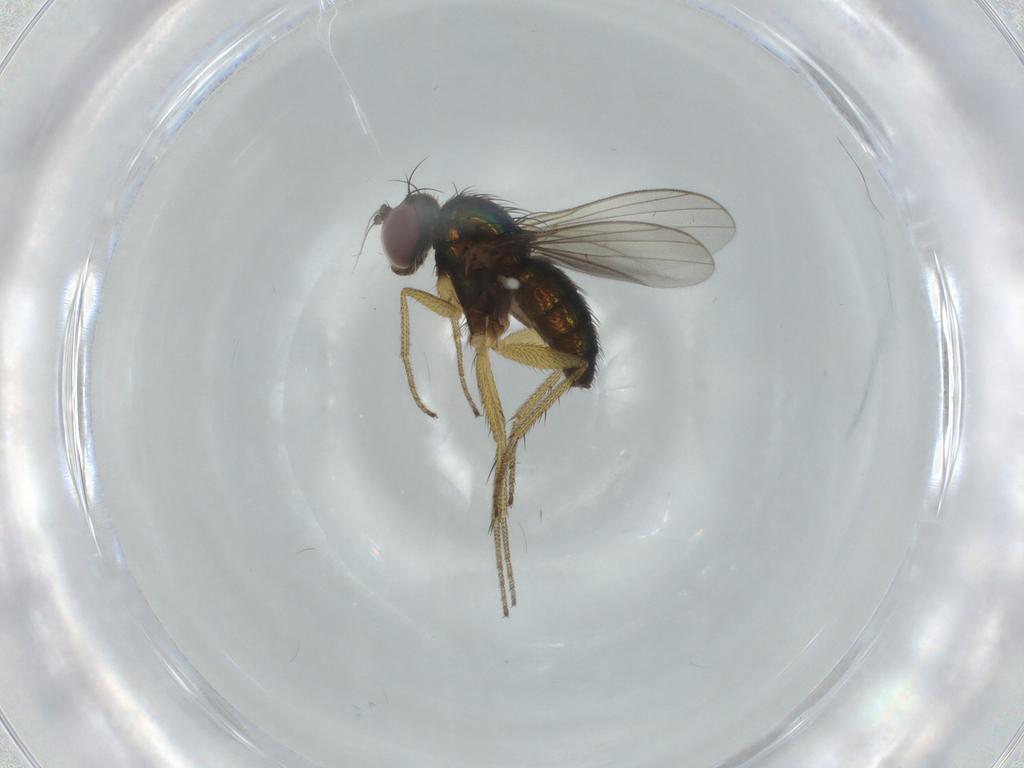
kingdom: Animalia
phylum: Arthropoda
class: Insecta
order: Diptera
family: Dolichopodidae
